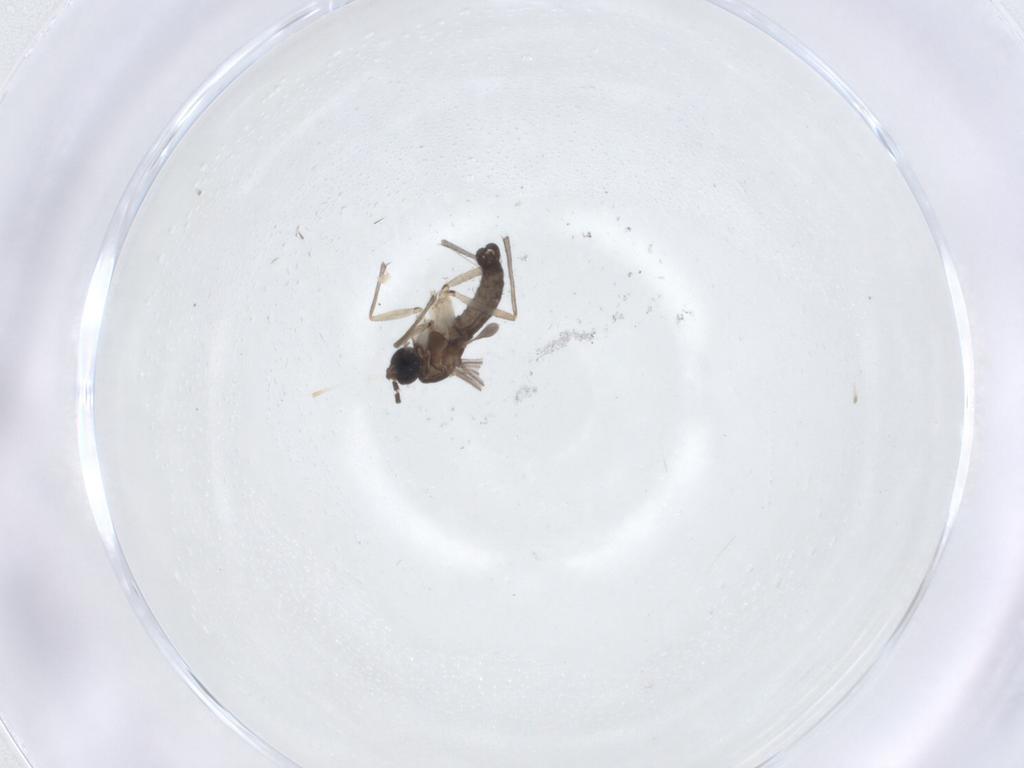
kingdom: Animalia
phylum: Arthropoda
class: Insecta
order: Diptera
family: Sciaridae
